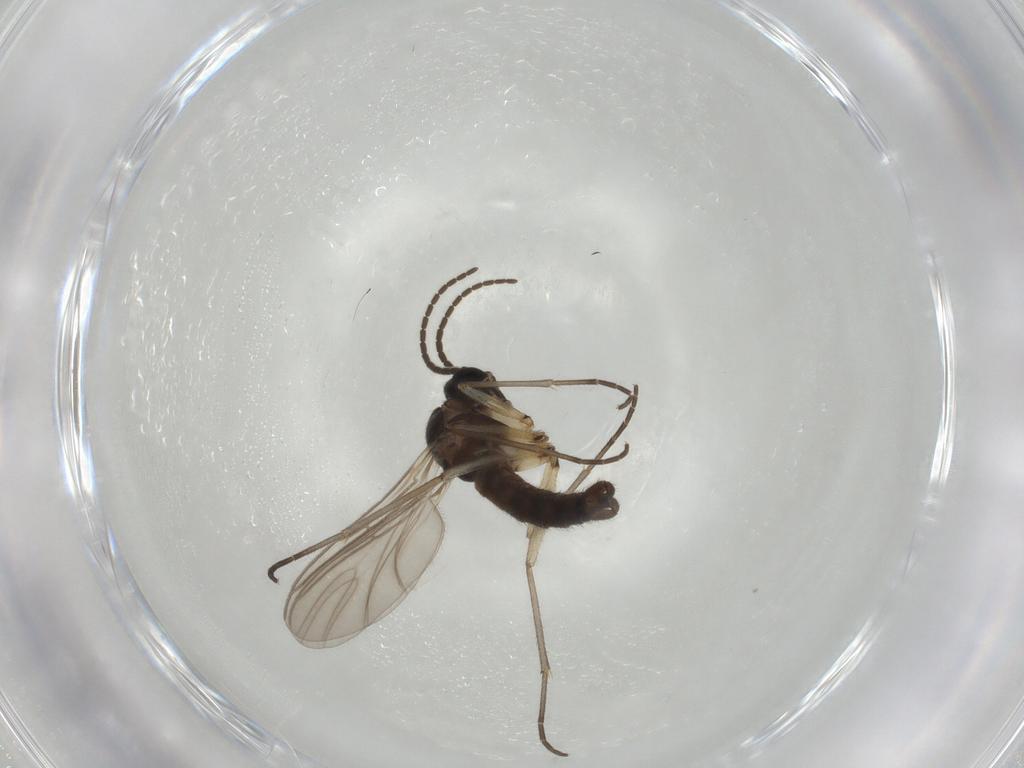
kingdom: Animalia
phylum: Arthropoda
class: Insecta
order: Diptera
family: Sciaridae
